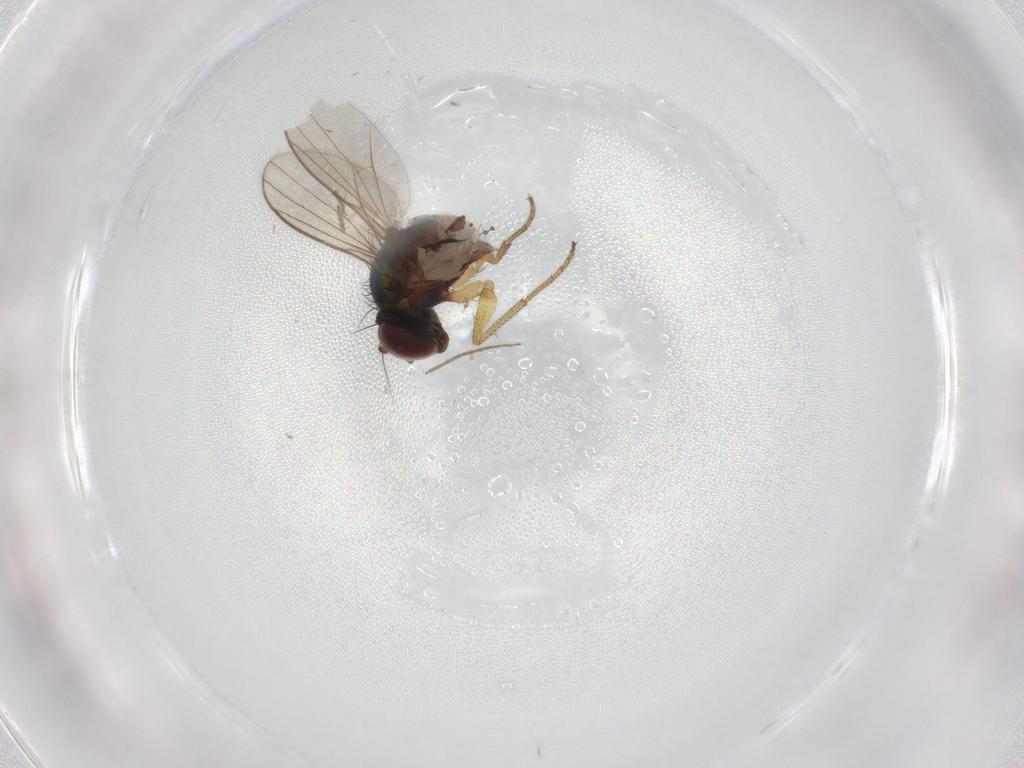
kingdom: Animalia
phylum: Arthropoda
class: Insecta
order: Diptera
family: Sciaridae
